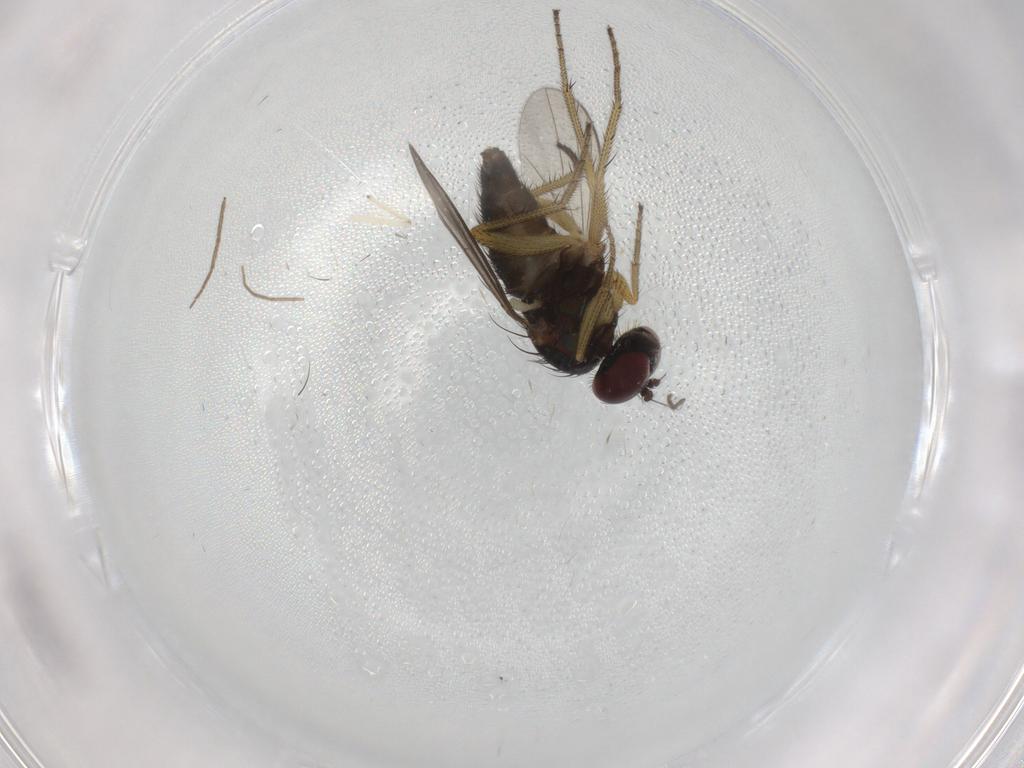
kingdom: Animalia
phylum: Arthropoda
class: Insecta
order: Diptera
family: Chironomidae
